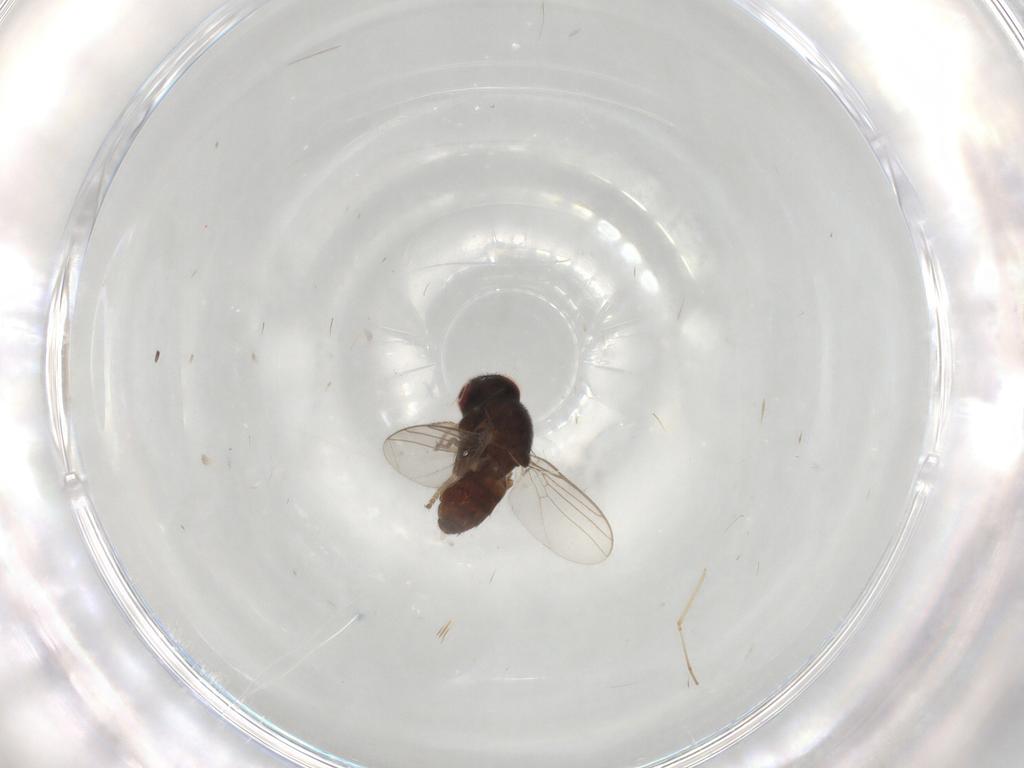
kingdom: Animalia
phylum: Arthropoda
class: Insecta
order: Diptera
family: Chloropidae
